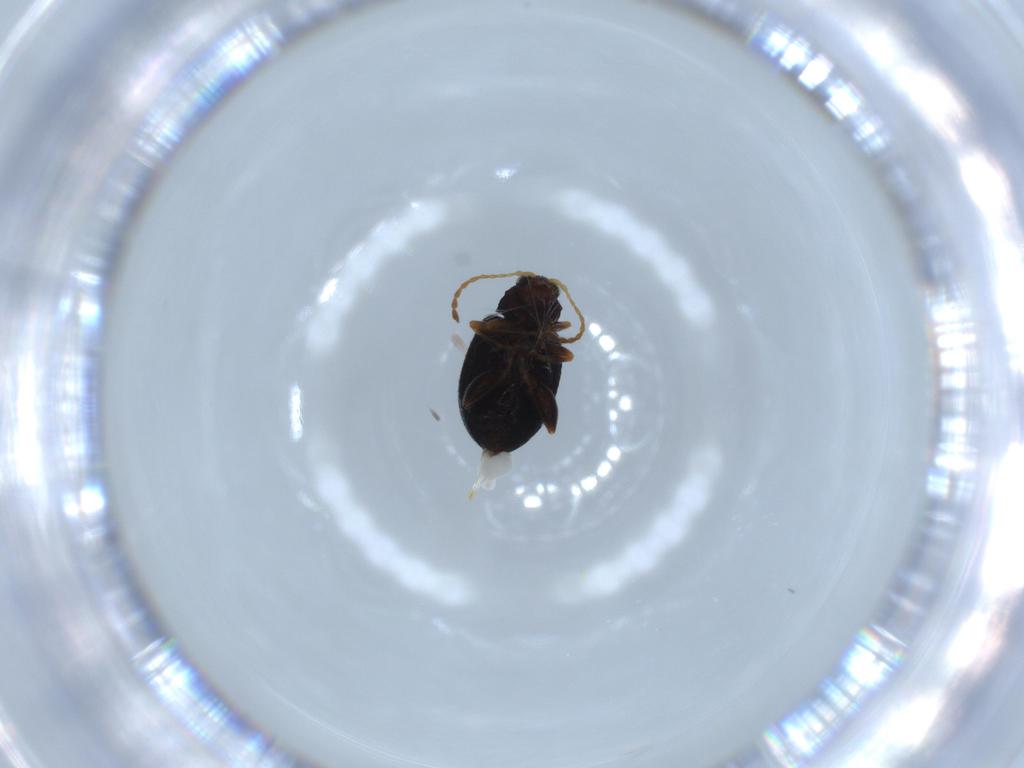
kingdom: Animalia
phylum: Arthropoda
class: Insecta
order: Coleoptera
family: Chrysomelidae
